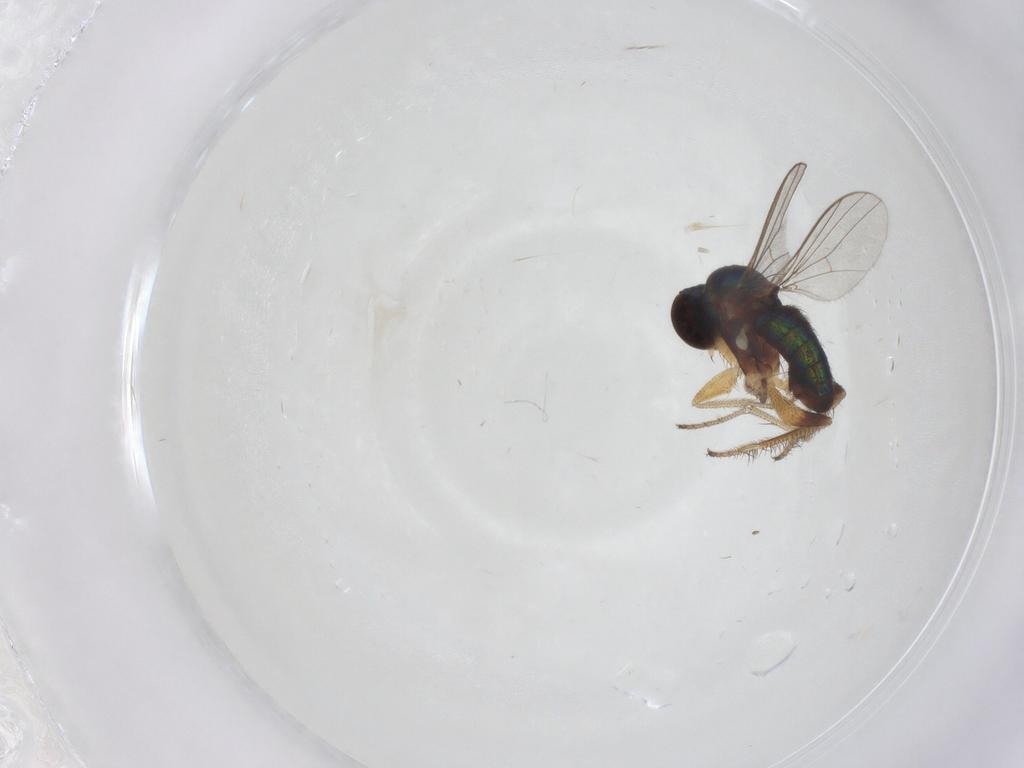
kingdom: Animalia
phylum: Arthropoda
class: Insecta
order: Diptera
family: Sciaridae
